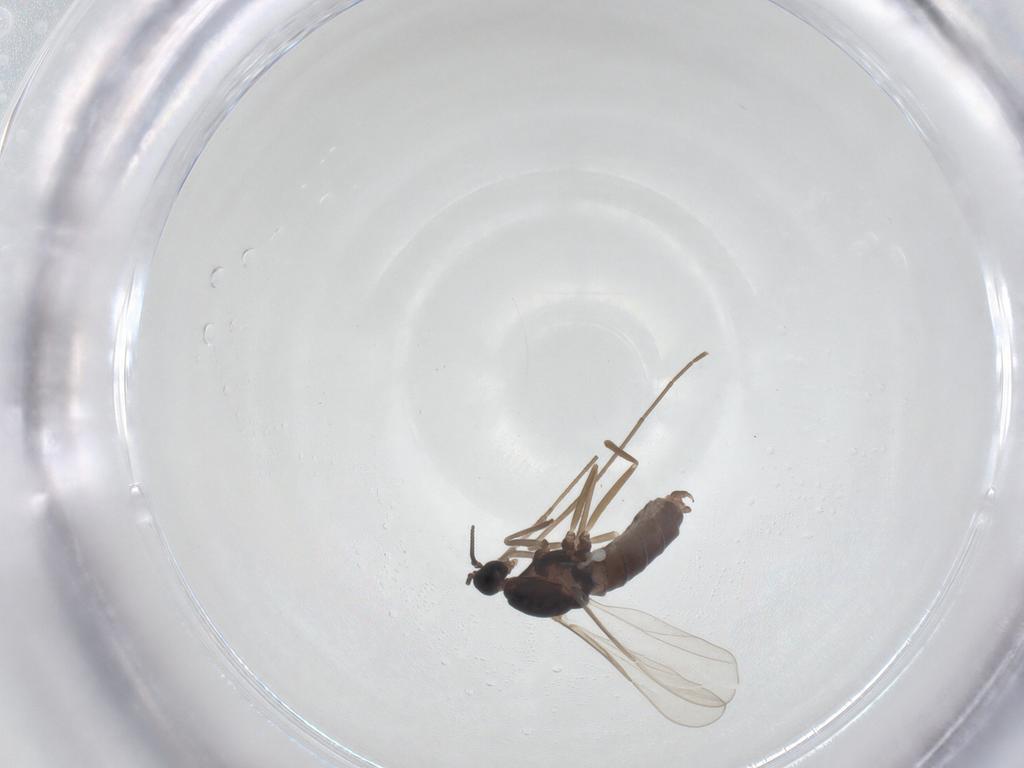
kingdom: Animalia
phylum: Arthropoda
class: Insecta
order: Diptera
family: Cecidomyiidae
